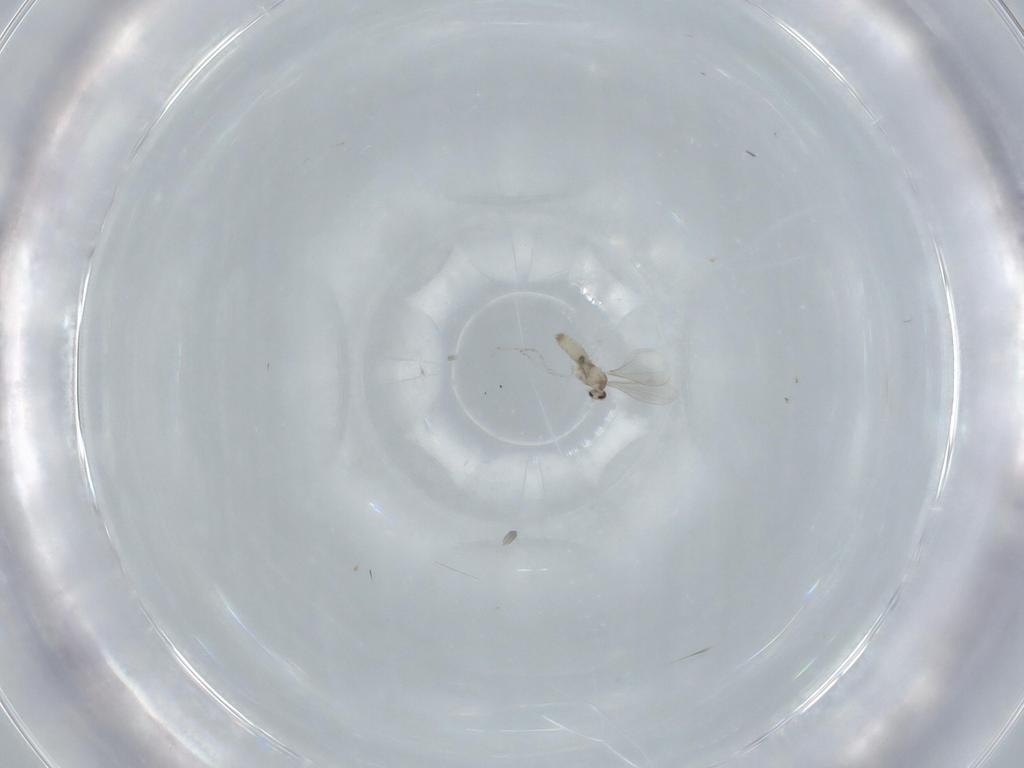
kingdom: Animalia
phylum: Arthropoda
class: Insecta
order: Diptera
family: Cecidomyiidae
